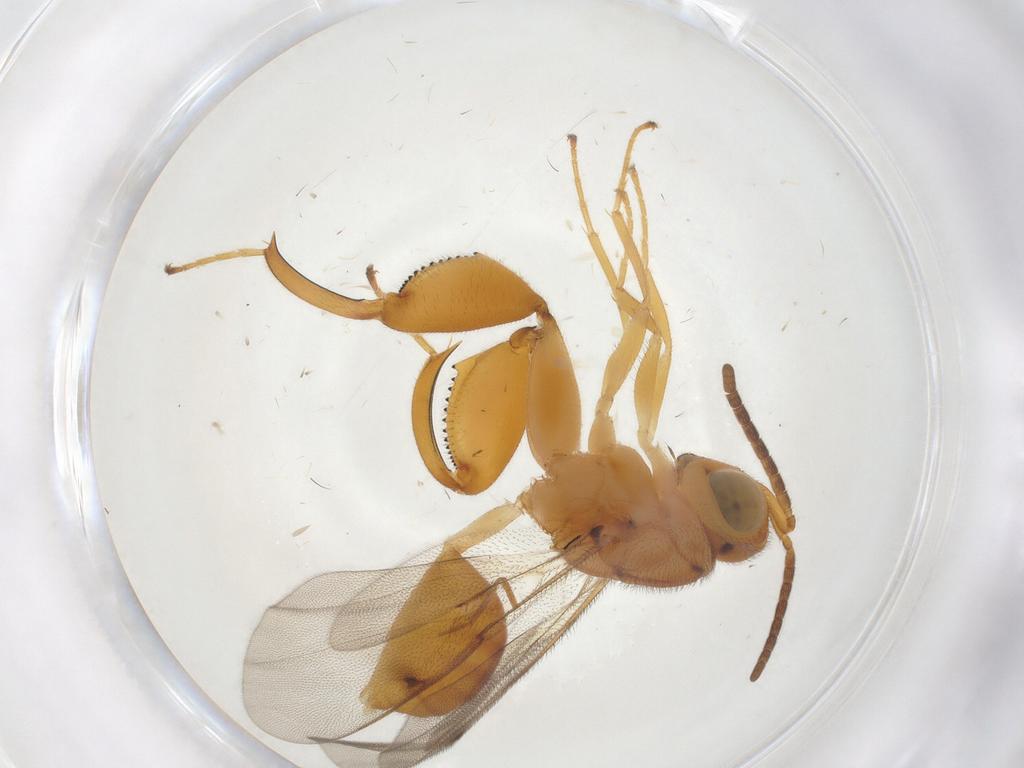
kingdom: Animalia
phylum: Arthropoda
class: Insecta
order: Hymenoptera
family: Chalcididae
